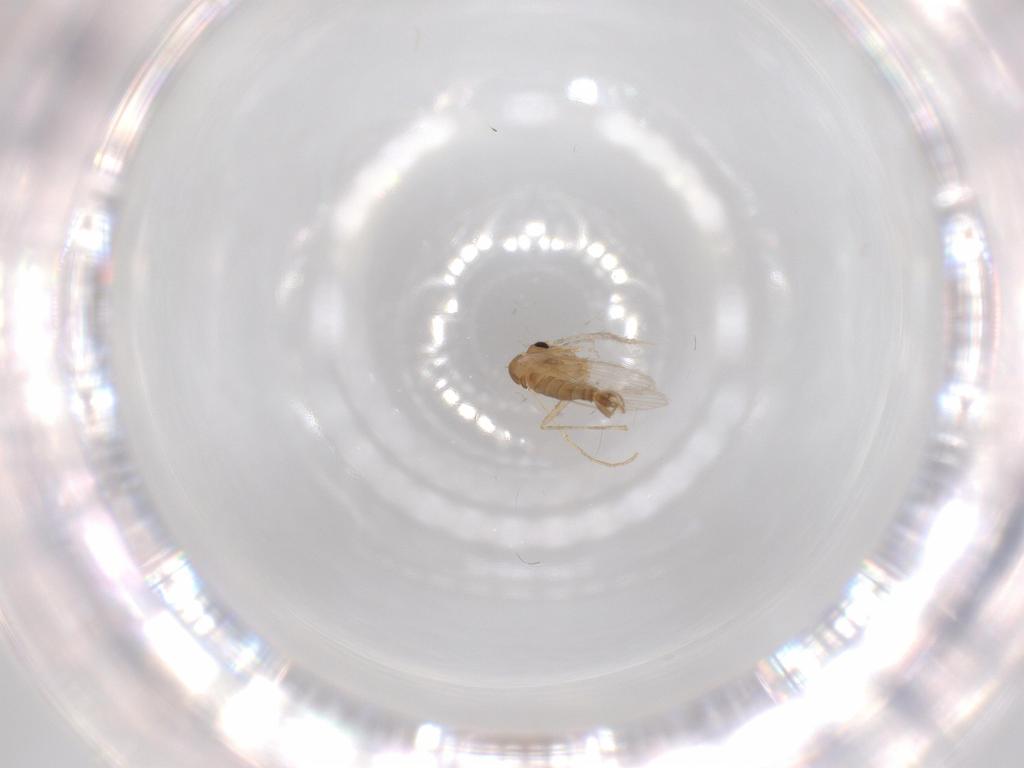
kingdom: Animalia
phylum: Arthropoda
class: Insecta
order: Diptera
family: Psychodidae
